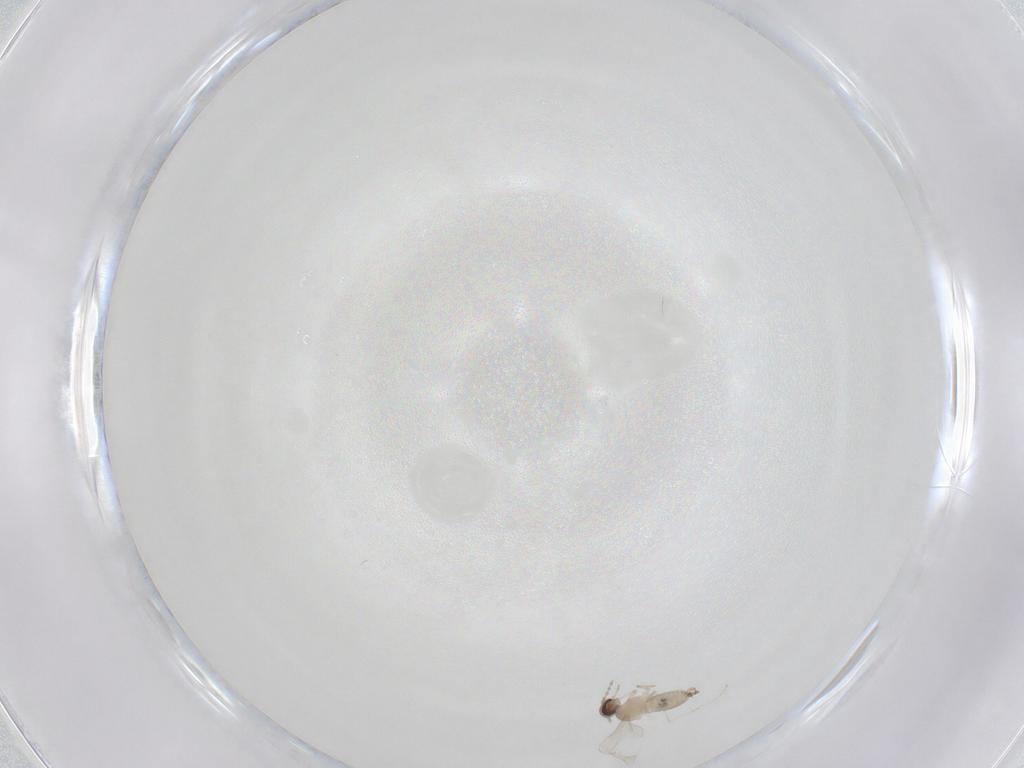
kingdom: Animalia
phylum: Arthropoda
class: Insecta
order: Diptera
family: Cecidomyiidae
